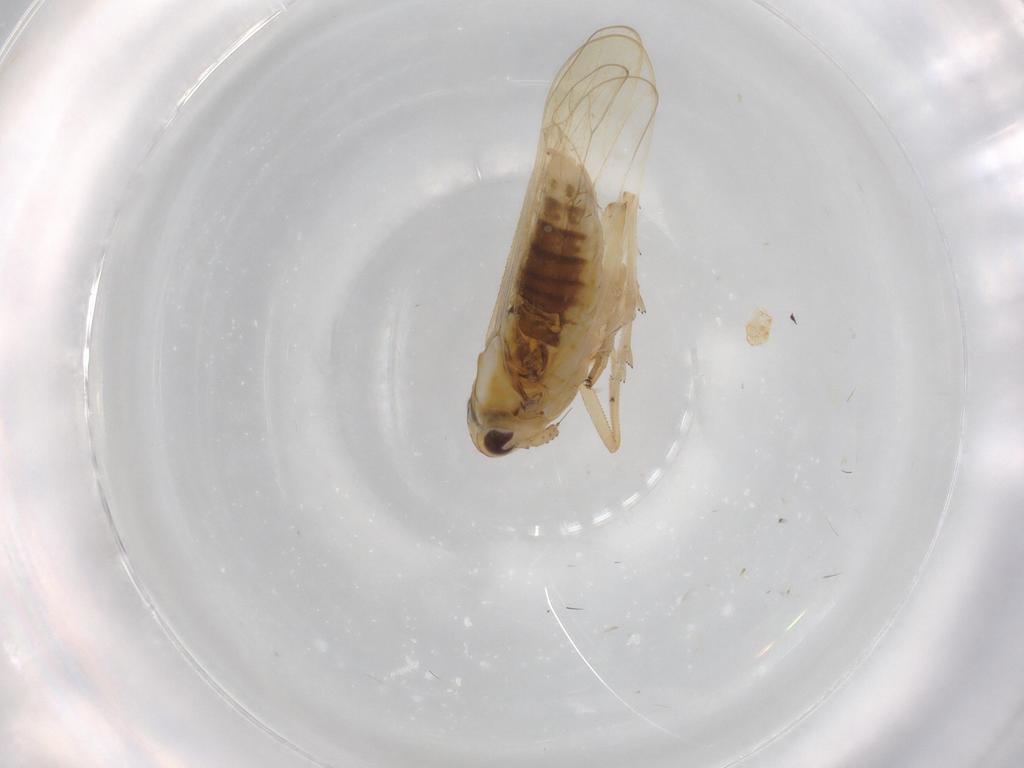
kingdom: Animalia
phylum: Arthropoda
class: Insecta
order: Hemiptera
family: Delphacidae
